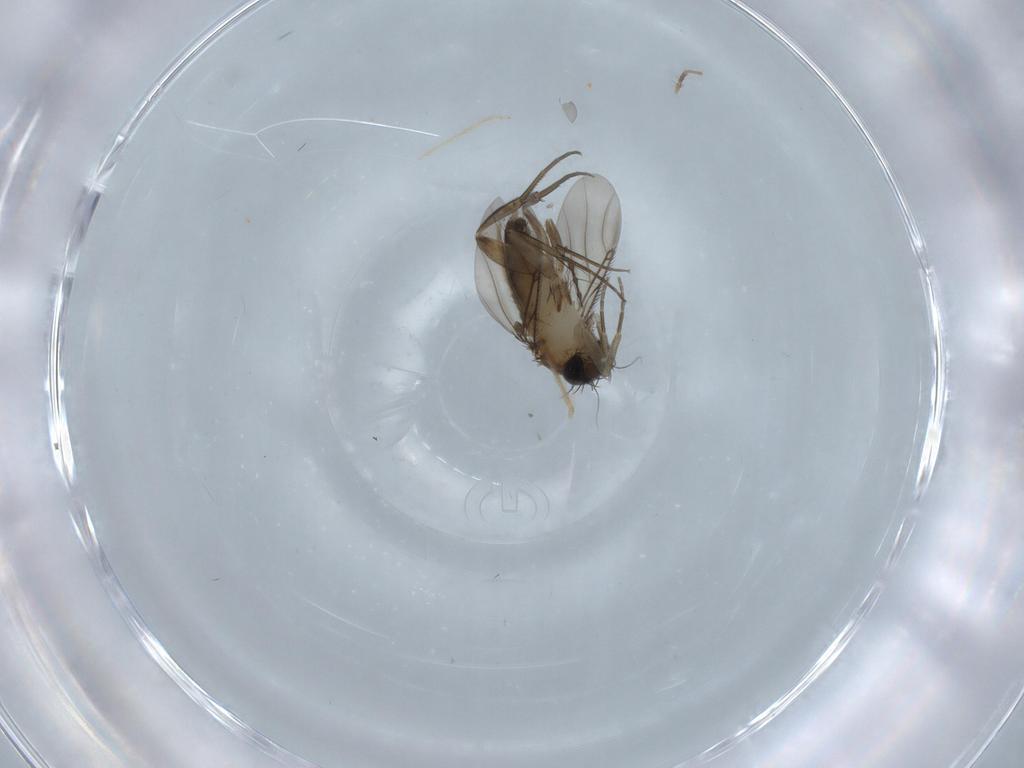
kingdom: Animalia
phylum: Arthropoda
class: Insecta
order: Diptera
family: Phoridae
